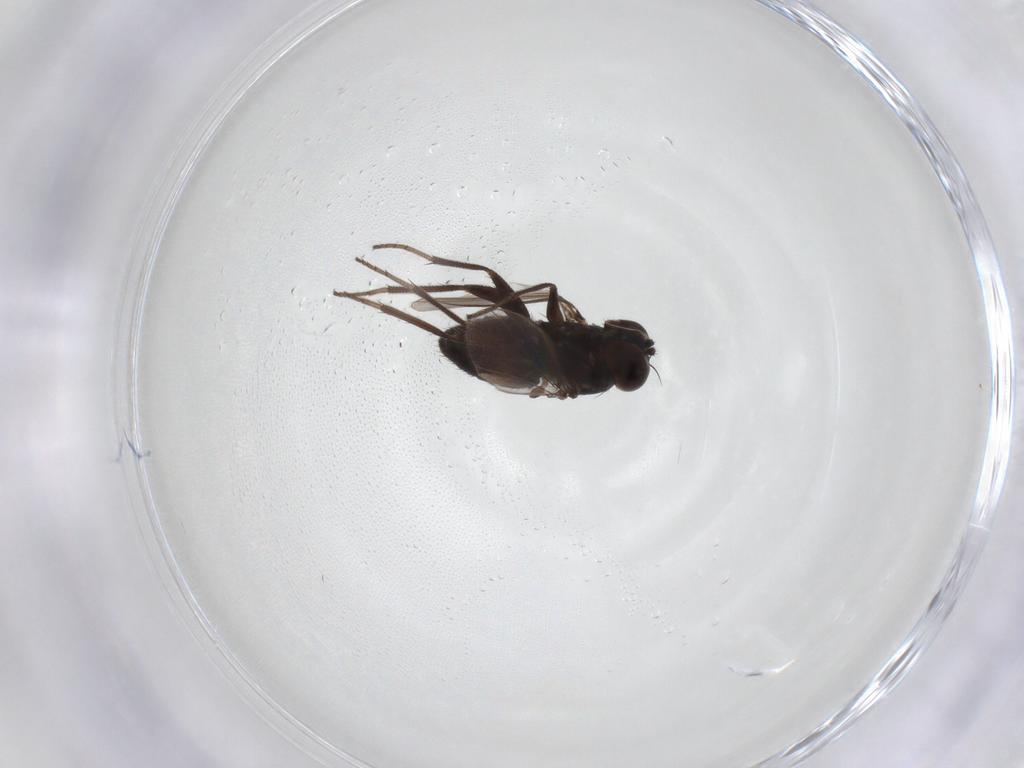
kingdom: Animalia
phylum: Arthropoda
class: Insecta
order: Diptera
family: Dolichopodidae
